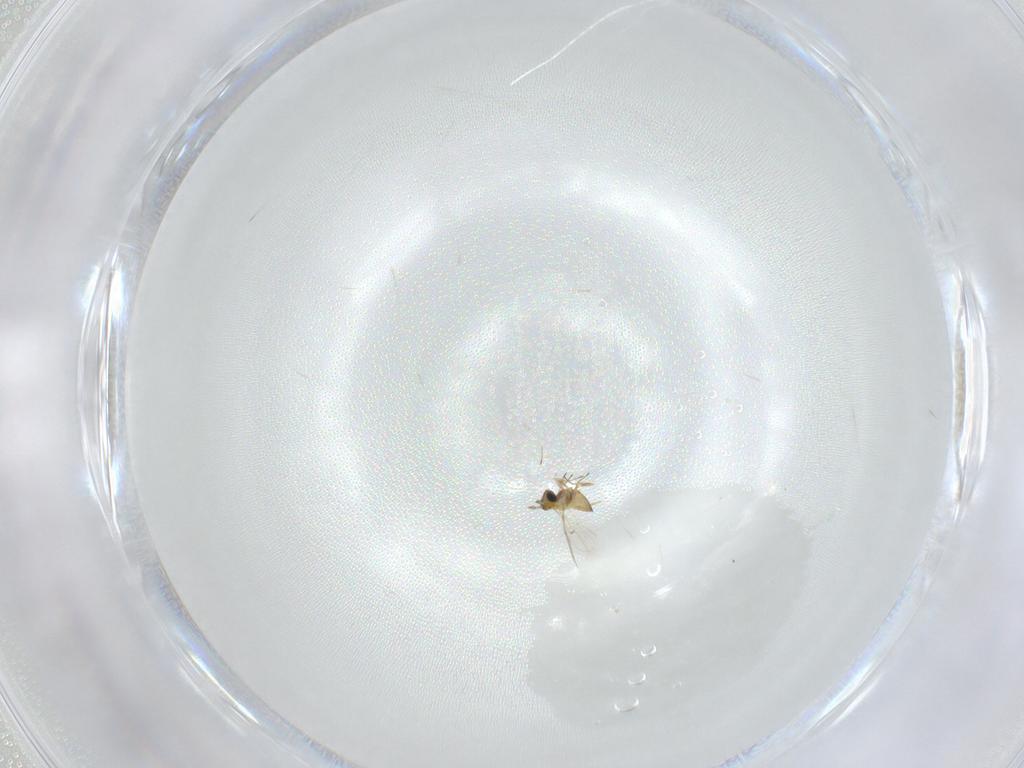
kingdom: Animalia
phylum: Arthropoda
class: Insecta
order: Hymenoptera
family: Trichogrammatidae
